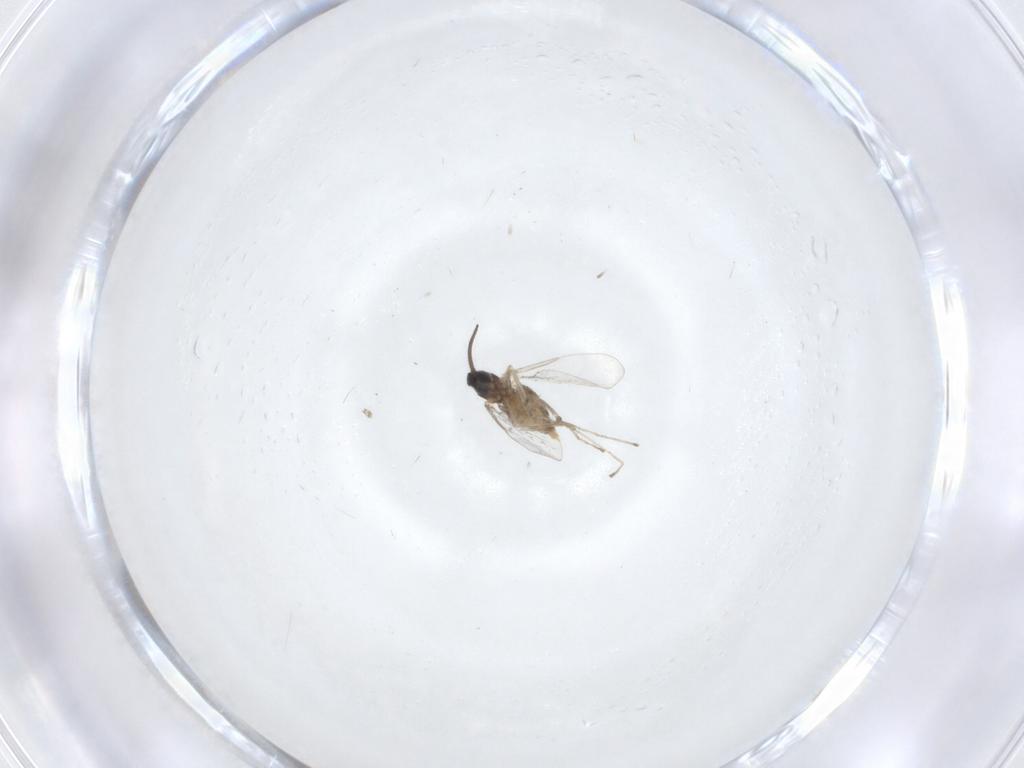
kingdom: Animalia
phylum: Arthropoda
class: Insecta
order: Diptera
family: Cecidomyiidae
